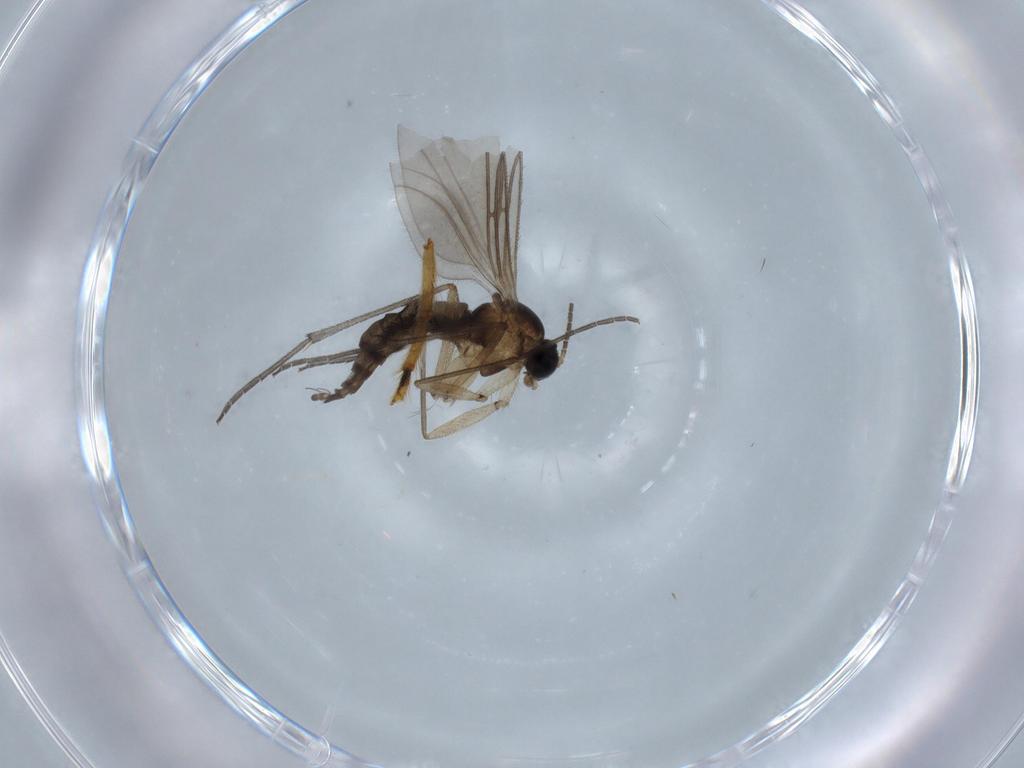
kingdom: Animalia
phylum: Arthropoda
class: Insecta
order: Diptera
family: Sciaridae
